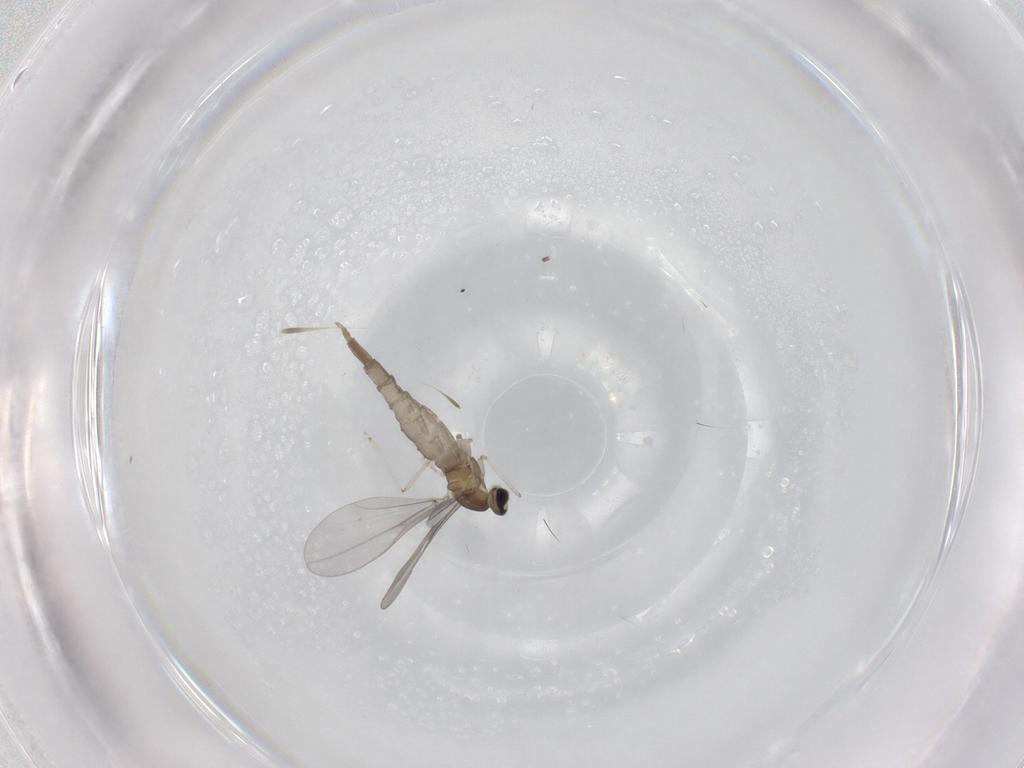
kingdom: Animalia
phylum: Arthropoda
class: Insecta
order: Diptera
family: Cecidomyiidae
